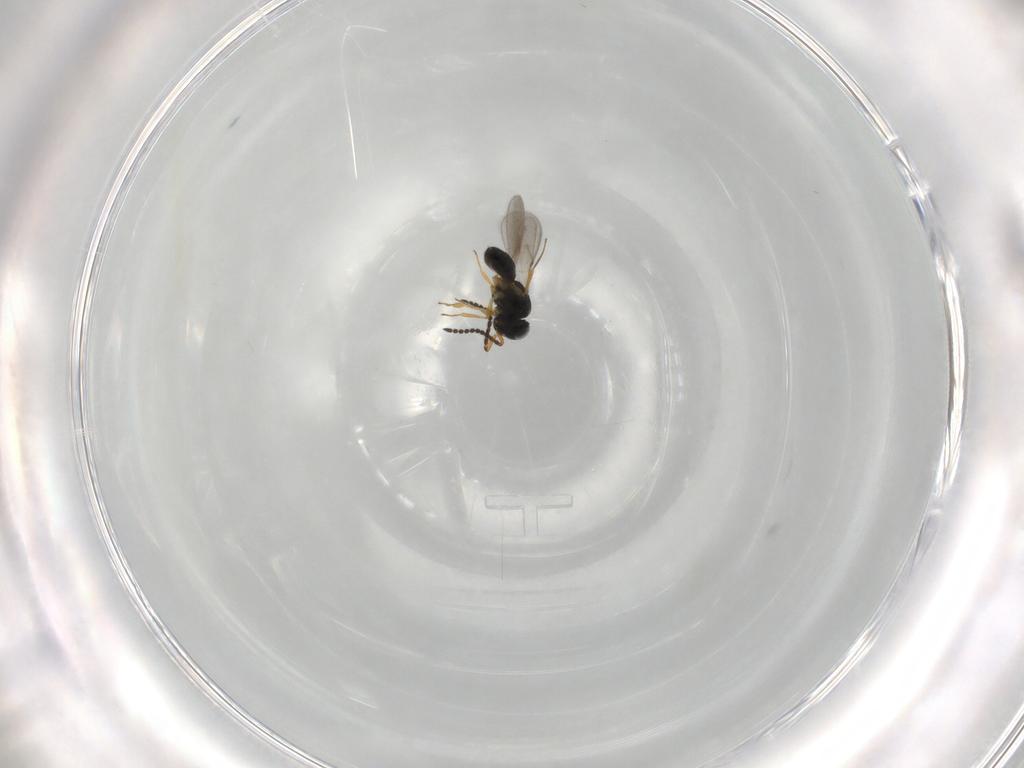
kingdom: Animalia
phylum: Arthropoda
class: Insecta
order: Hymenoptera
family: Scelionidae
